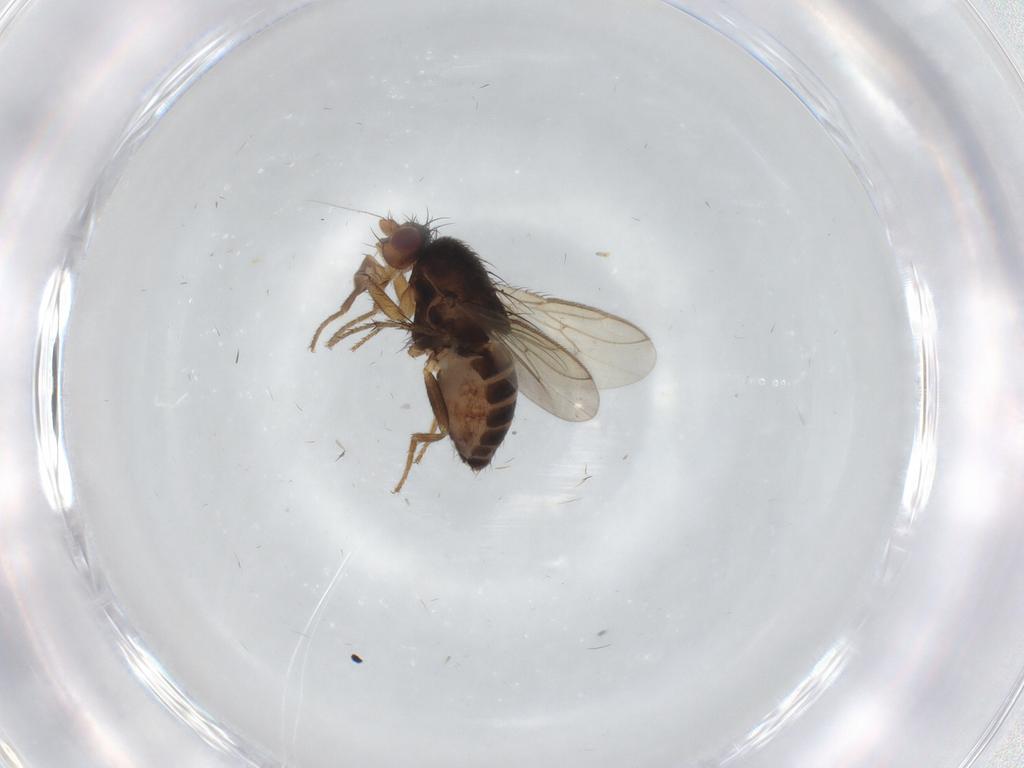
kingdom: Animalia
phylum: Arthropoda
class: Insecta
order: Diptera
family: Sphaeroceridae
